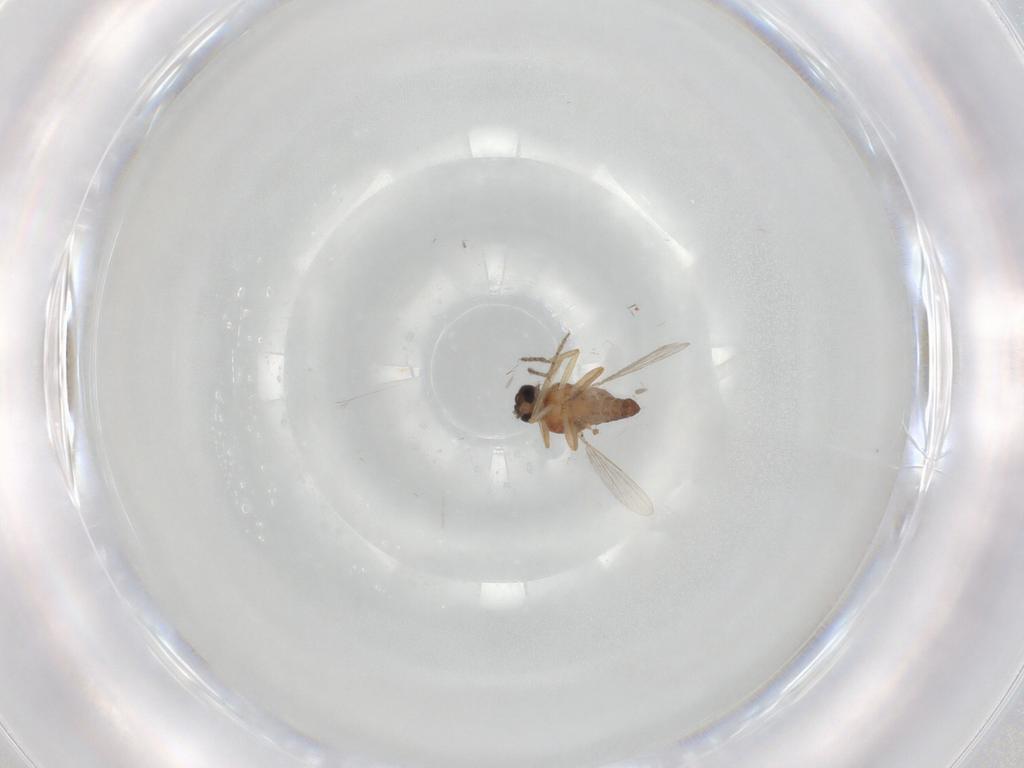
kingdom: Animalia
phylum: Arthropoda
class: Insecta
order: Diptera
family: Ceratopogonidae
